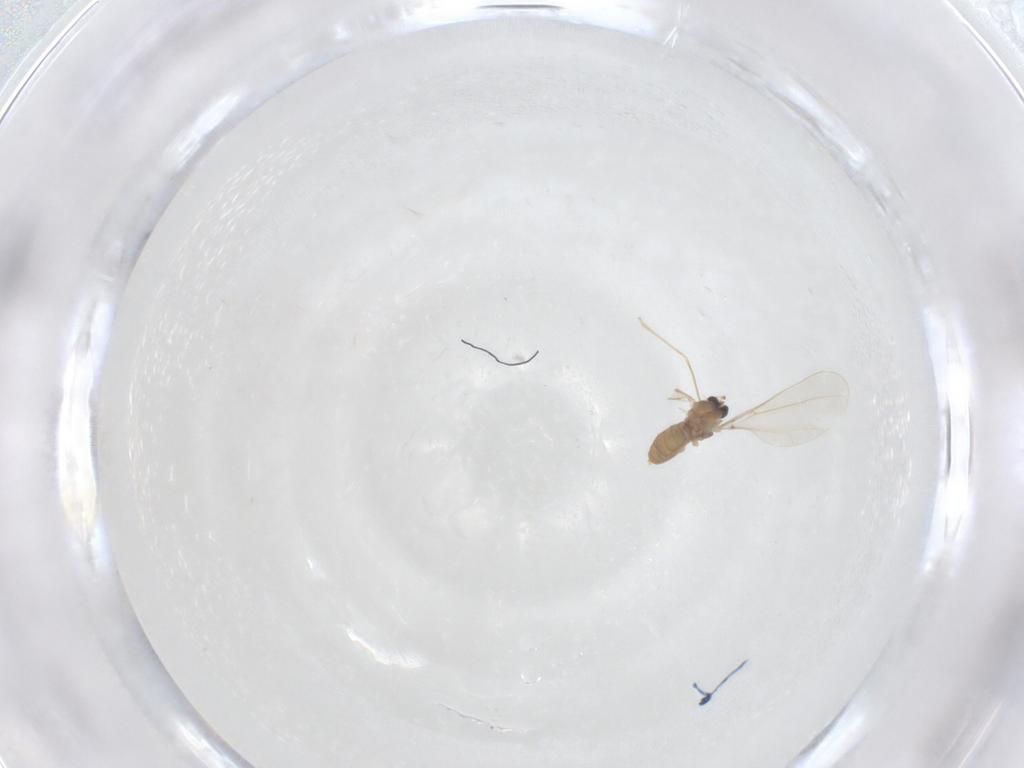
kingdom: Animalia
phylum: Arthropoda
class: Insecta
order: Diptera
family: Cecidomyiidae
